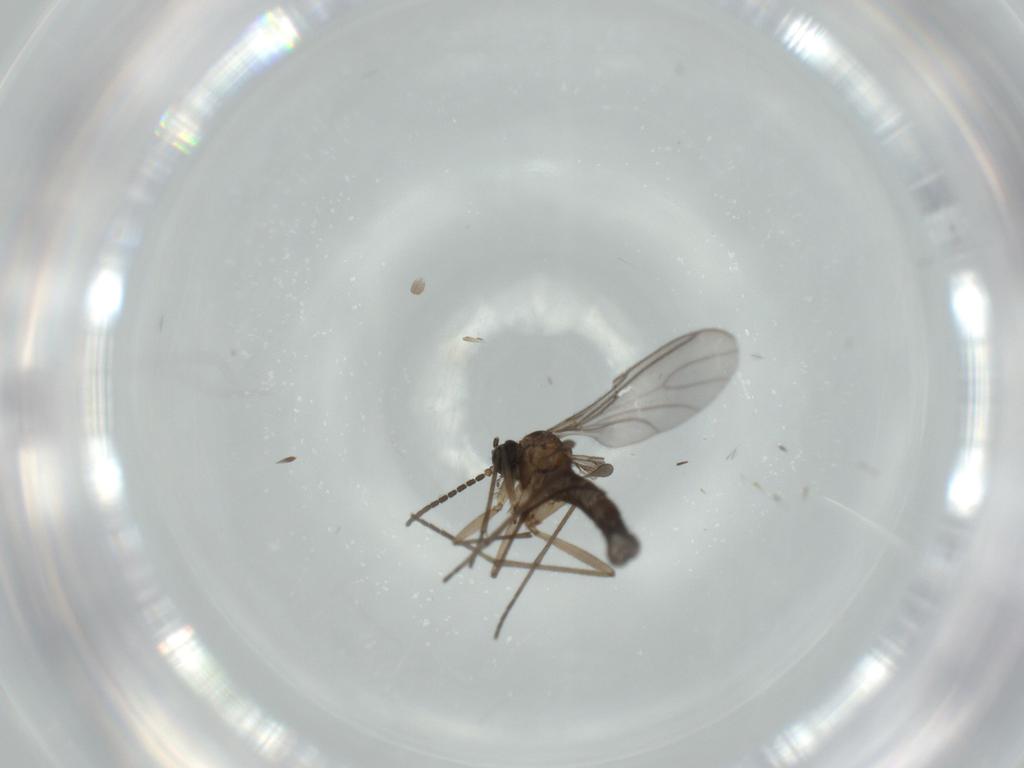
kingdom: Animalia
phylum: Arthropoda
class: Insecta
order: Diptera
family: Sciaridae
